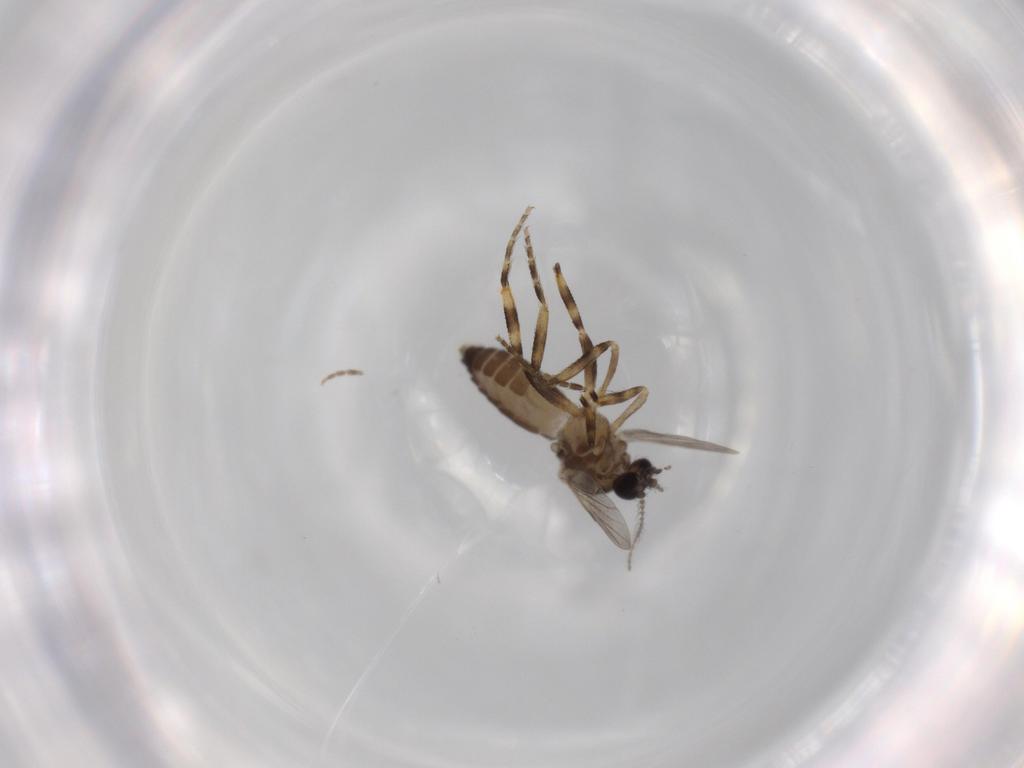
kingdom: Animalia
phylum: Arthropoda
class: Insecta
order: Diptera
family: Ceratopogonidae
